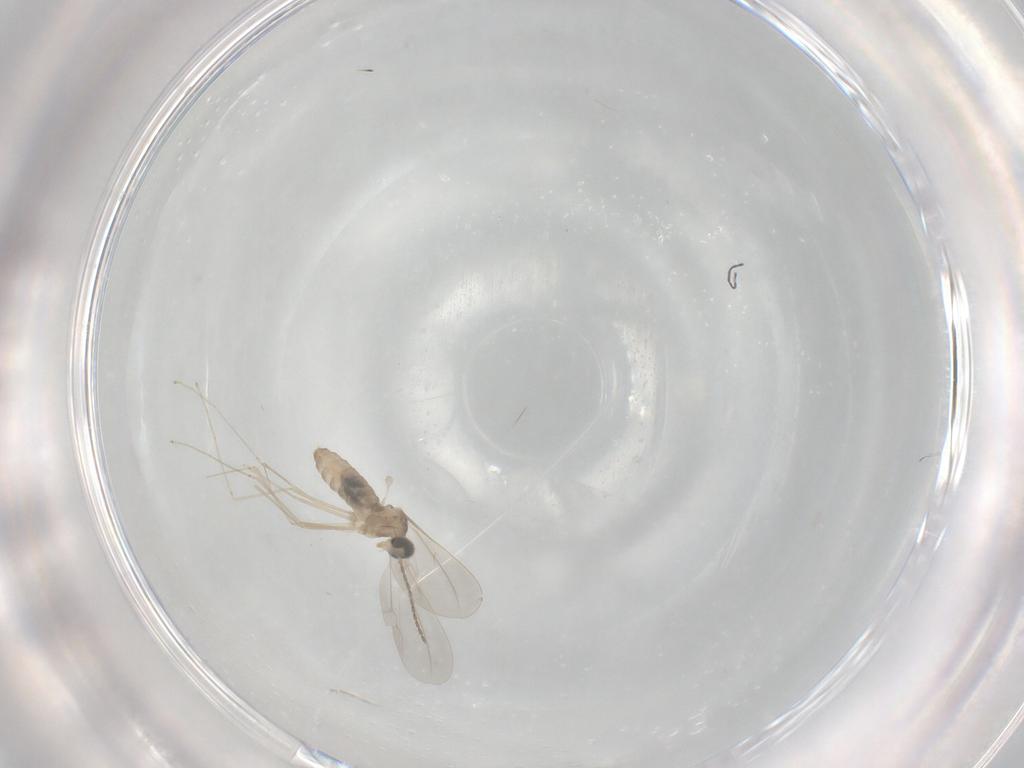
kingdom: Animalia
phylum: Arthropoda
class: Insecta
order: Diptera
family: Cecidomyiidae
